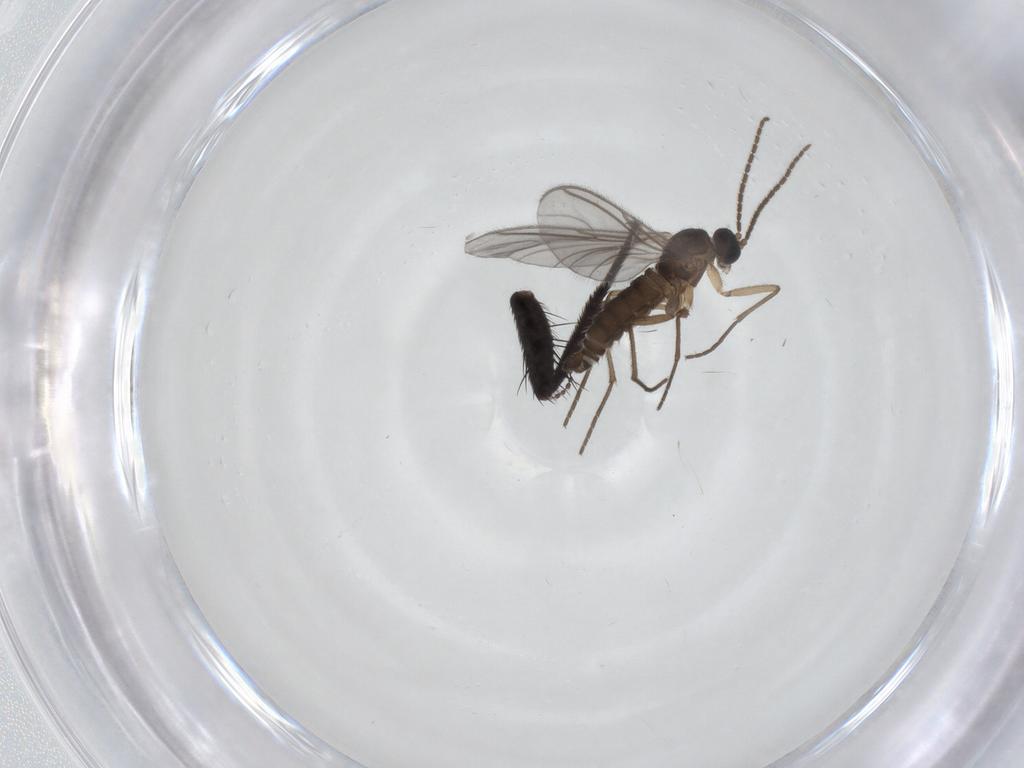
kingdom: Animalia
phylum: Arthropoda
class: Insecta
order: Diptera
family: Sciaridae
